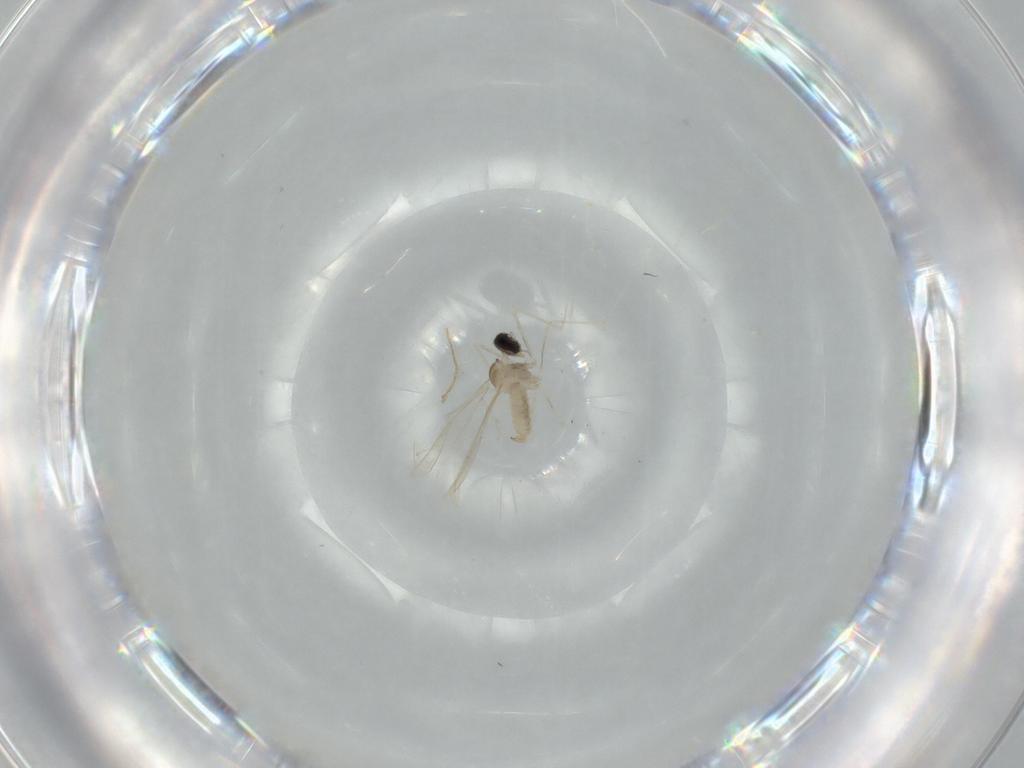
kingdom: Animalia
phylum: Arthropoda
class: Insecta
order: Diptera
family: Cecidomyiidae
